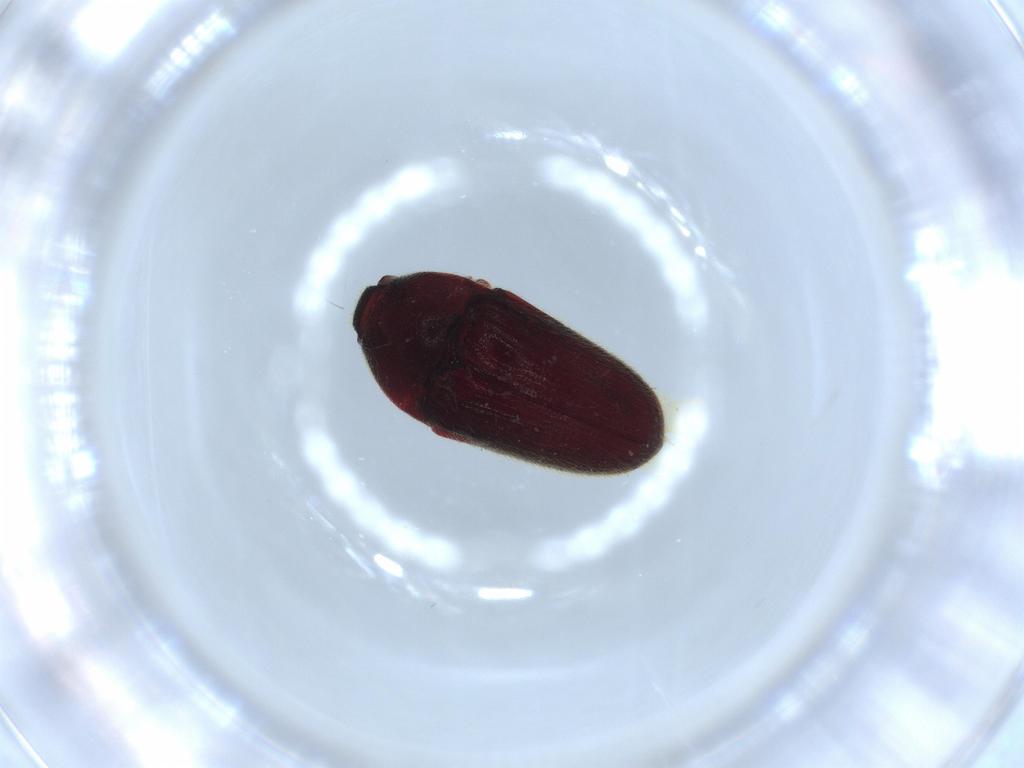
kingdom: Animalia
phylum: Arthropoda
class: Insecta
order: Coleoptera
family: Throscidae
